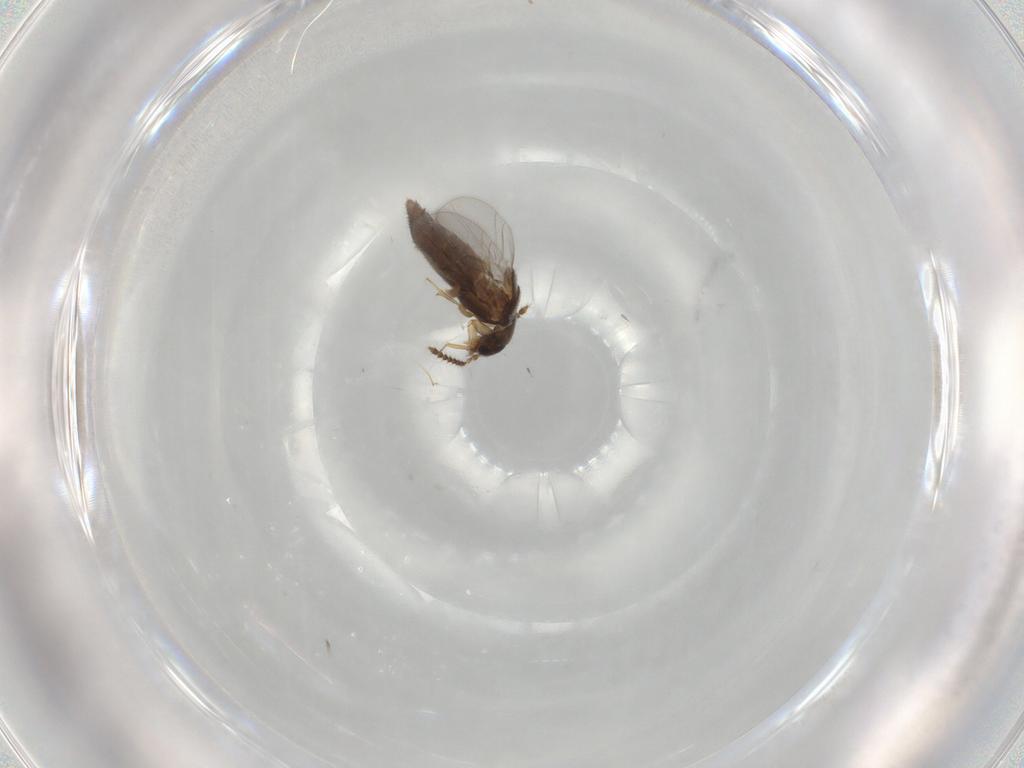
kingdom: Animalia
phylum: Arthropoda
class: Insecta
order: Coleoptera
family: Staphylinidae
